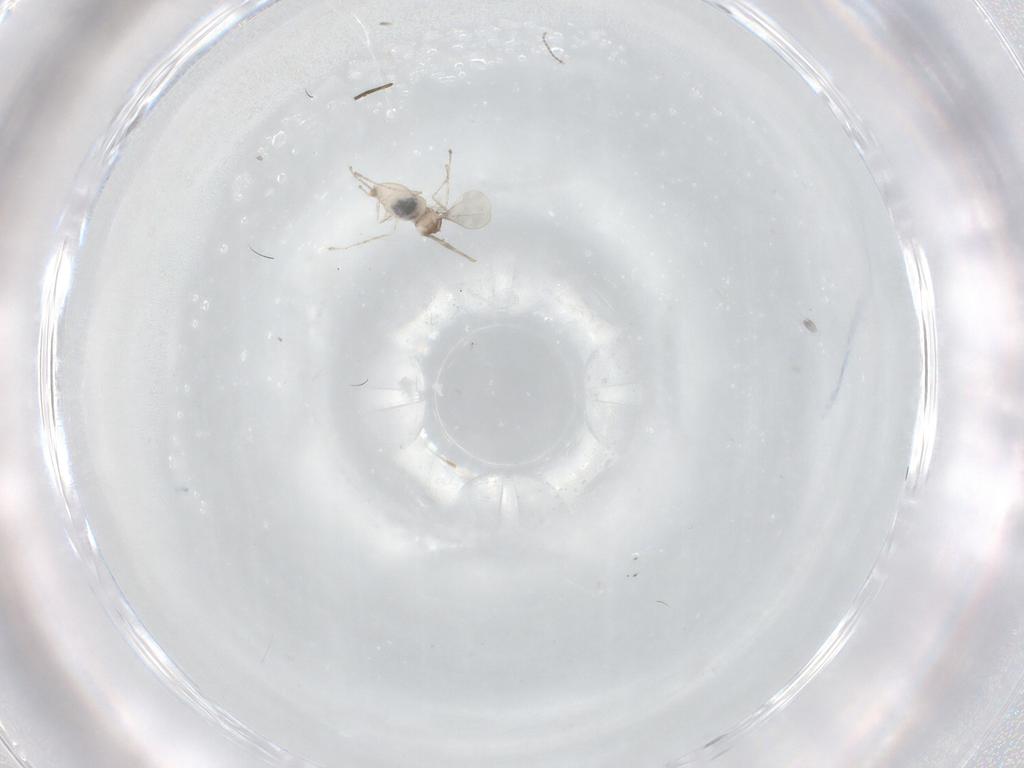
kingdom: Animalia
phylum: Arthropoda
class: Insecta
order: Diptera
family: Cecidomyiidae
